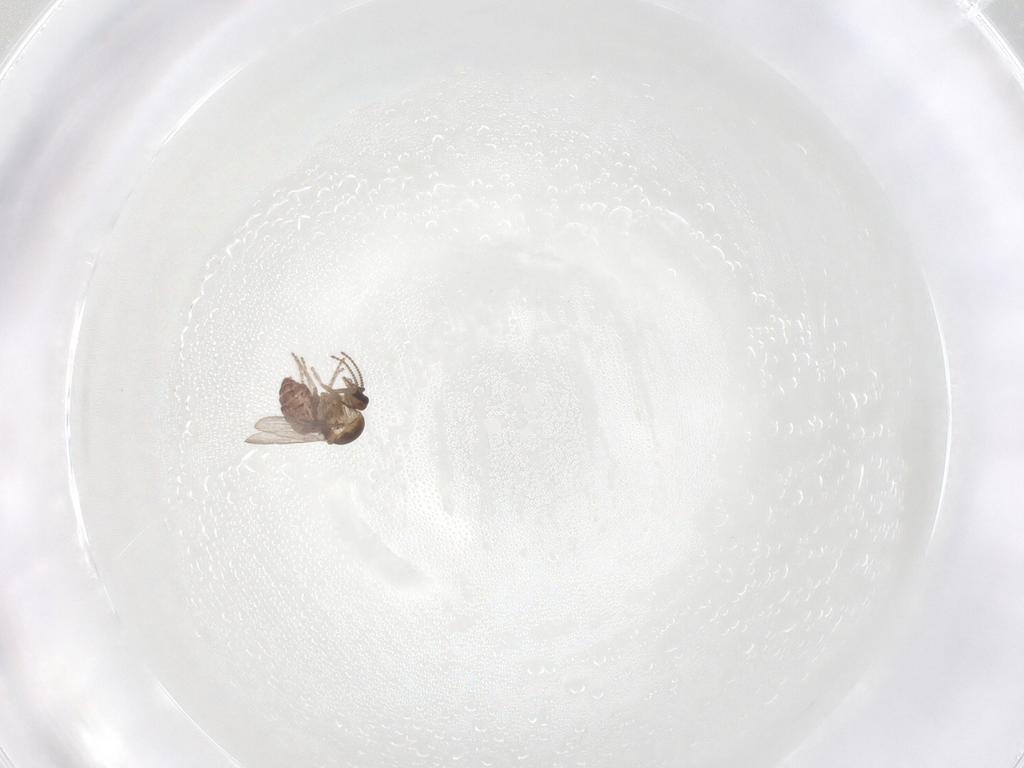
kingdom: Animalia
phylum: Arthropoda
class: Insecta
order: Diptera
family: Ceratopogonidae
